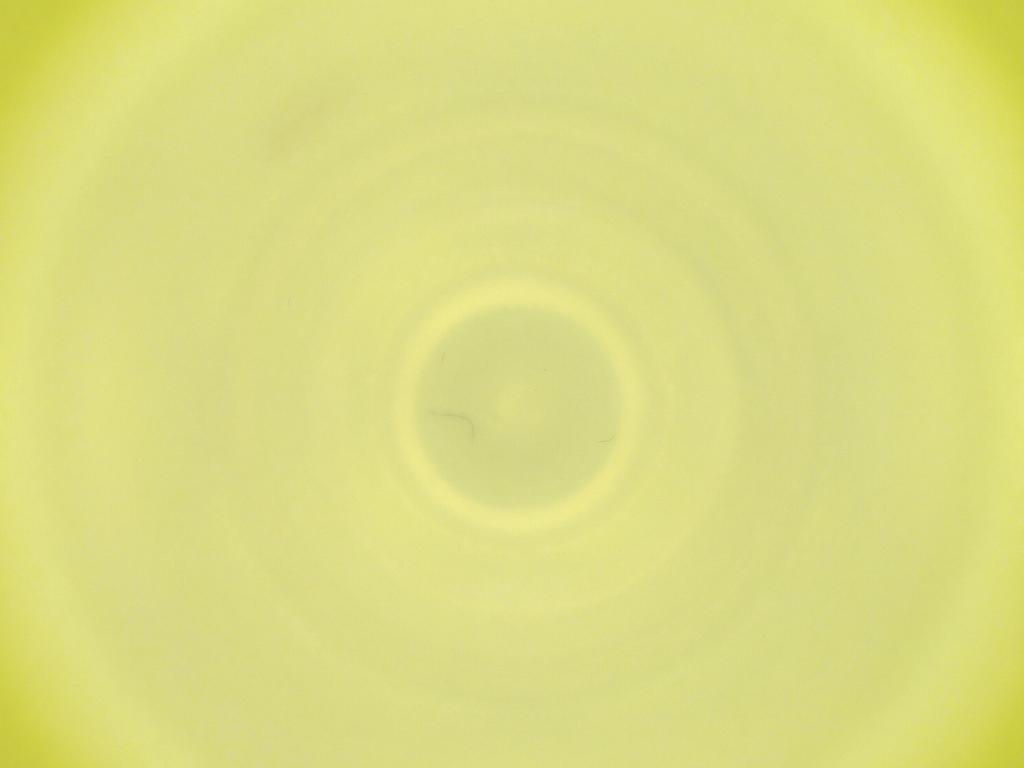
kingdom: Animalia
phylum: Arthropoda
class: Insecta
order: Diptera
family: Cecidomyiidae
